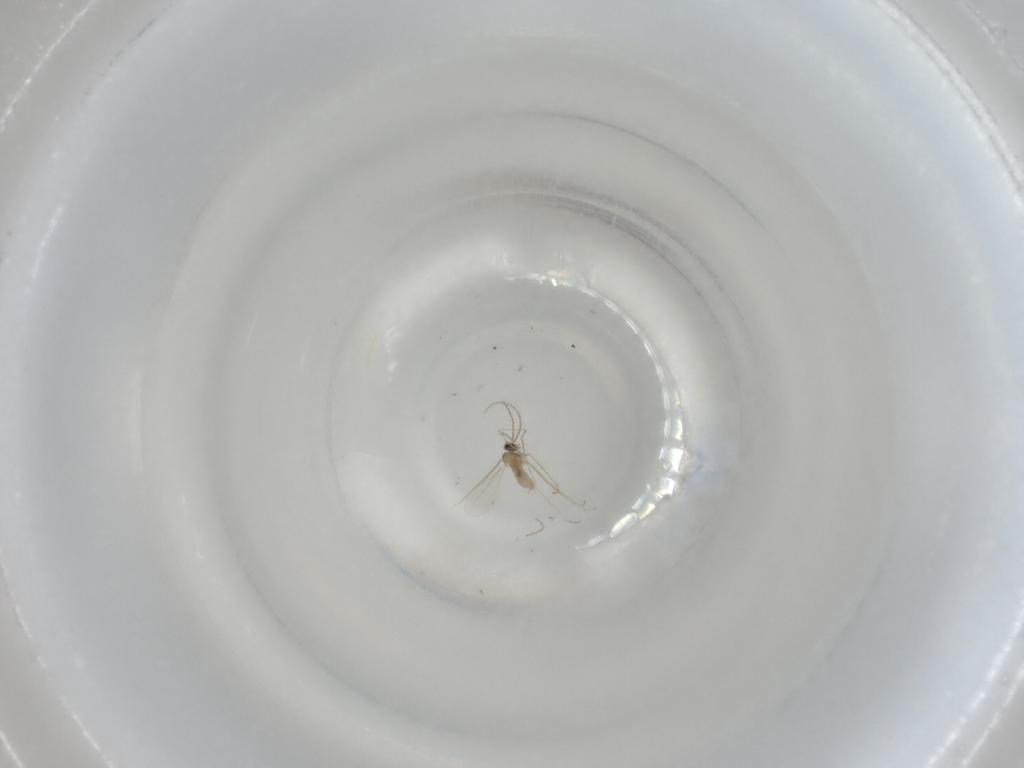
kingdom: Animalia
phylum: Arthropoda
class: Insecta
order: Diptera
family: Cecidomyiidae
